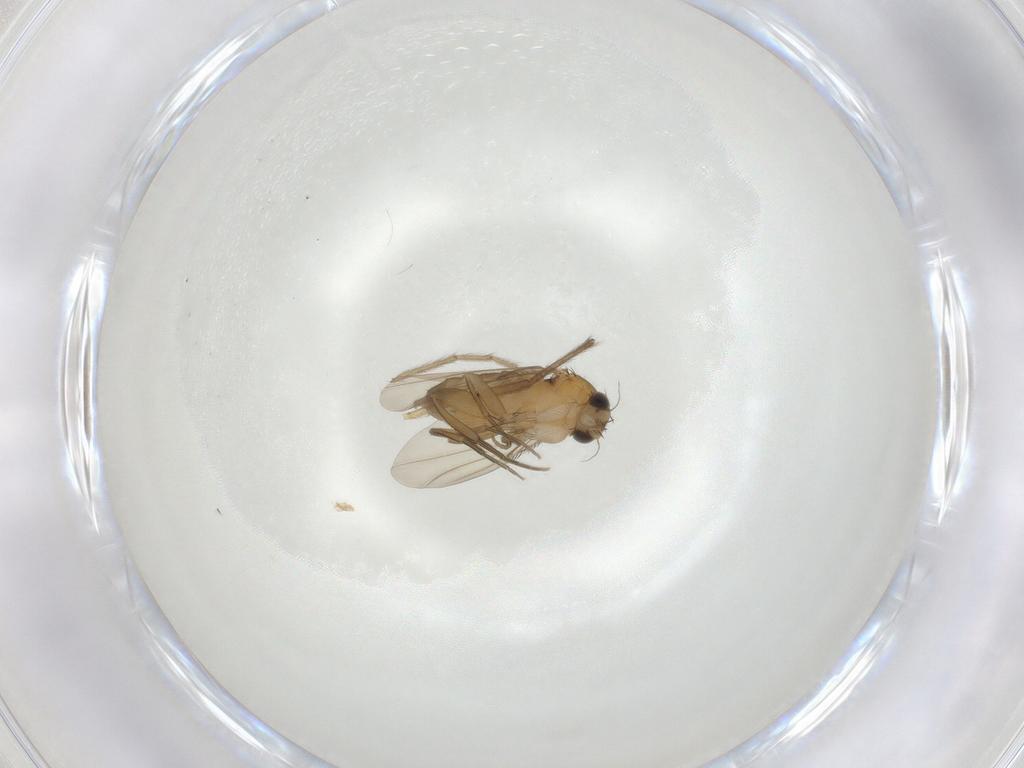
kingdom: Animalia
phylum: Arthropoda
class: Insecta
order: Diptera
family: Phoridae
